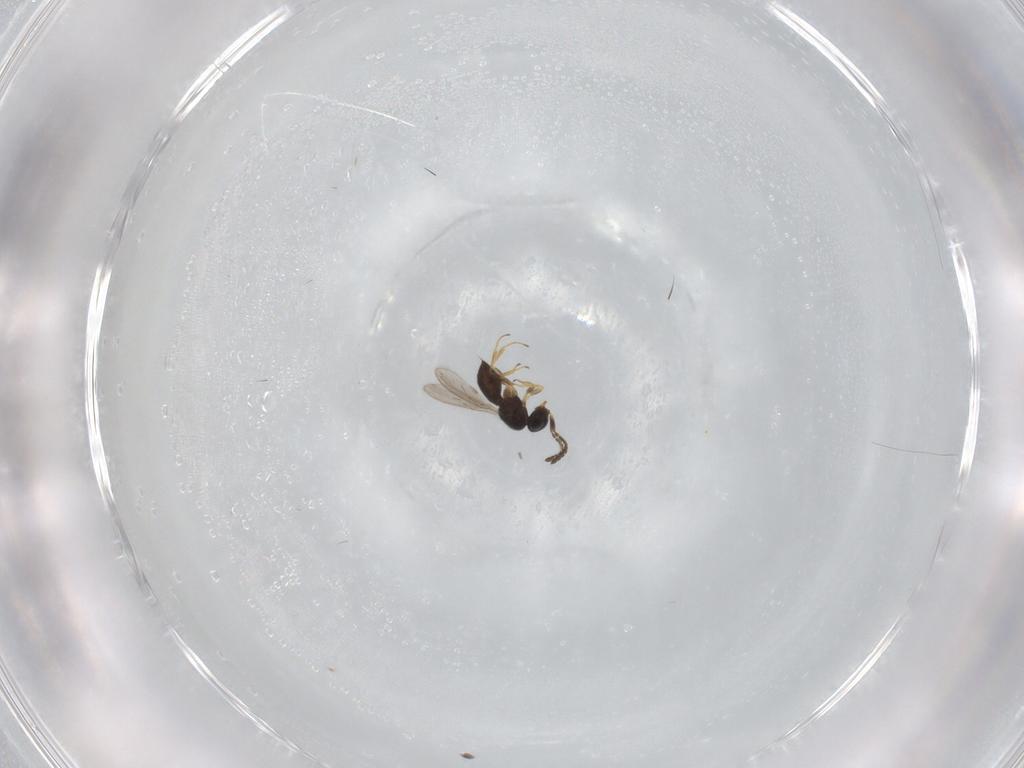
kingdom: Animalia
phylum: Arthropoda
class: Insecta
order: Hymenoptera
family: Scelionidae
